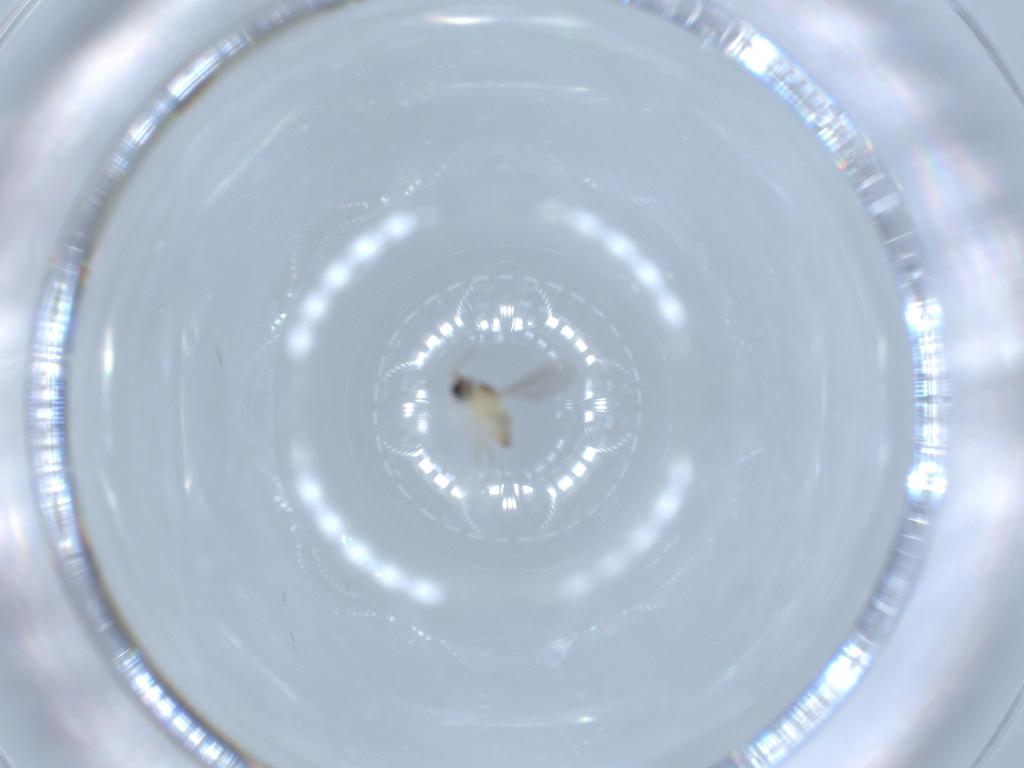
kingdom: Animalia
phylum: Arthropoda
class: Insecta
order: Diptera
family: Cecidomyiidae
